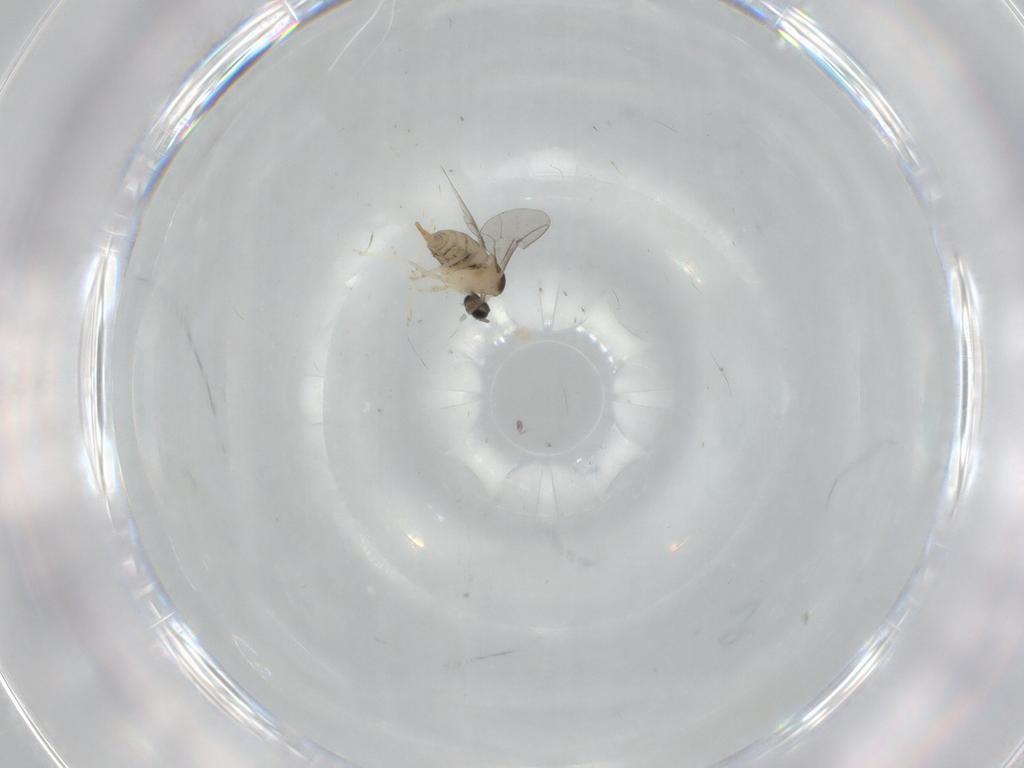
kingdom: Animalia
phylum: Arthropoda
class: Insecta
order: Diptera
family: Cecidomyiidae
